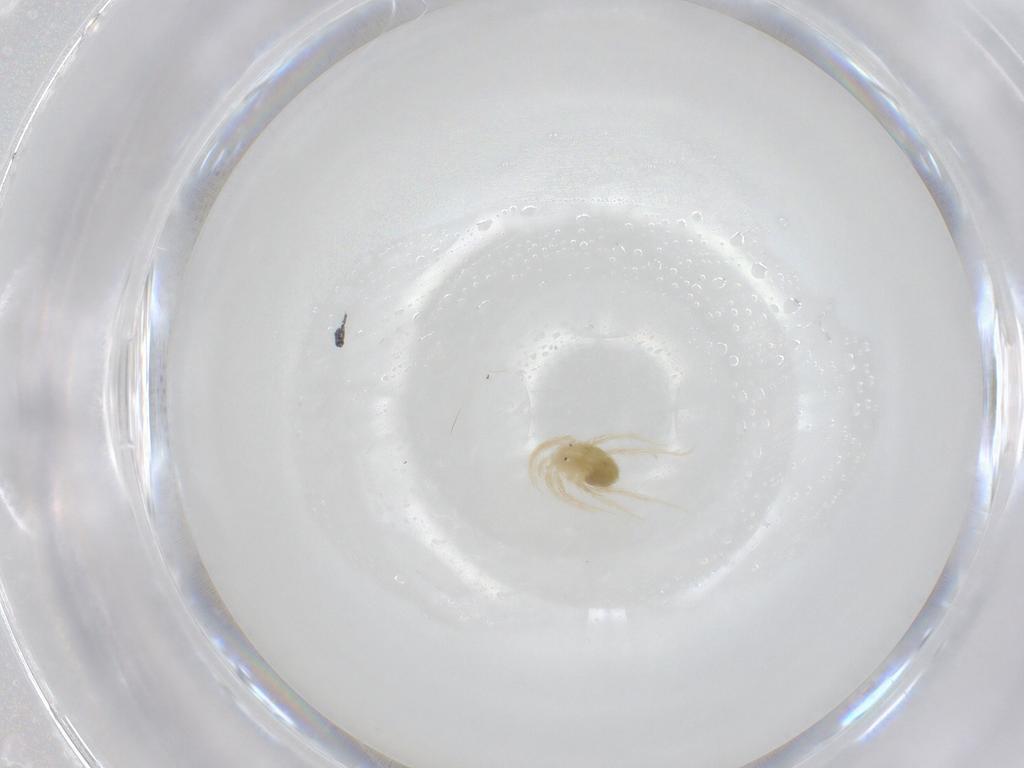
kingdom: Animalia
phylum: Arthropoda
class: Arachnida
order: Trombidiformes
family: Anystidae
